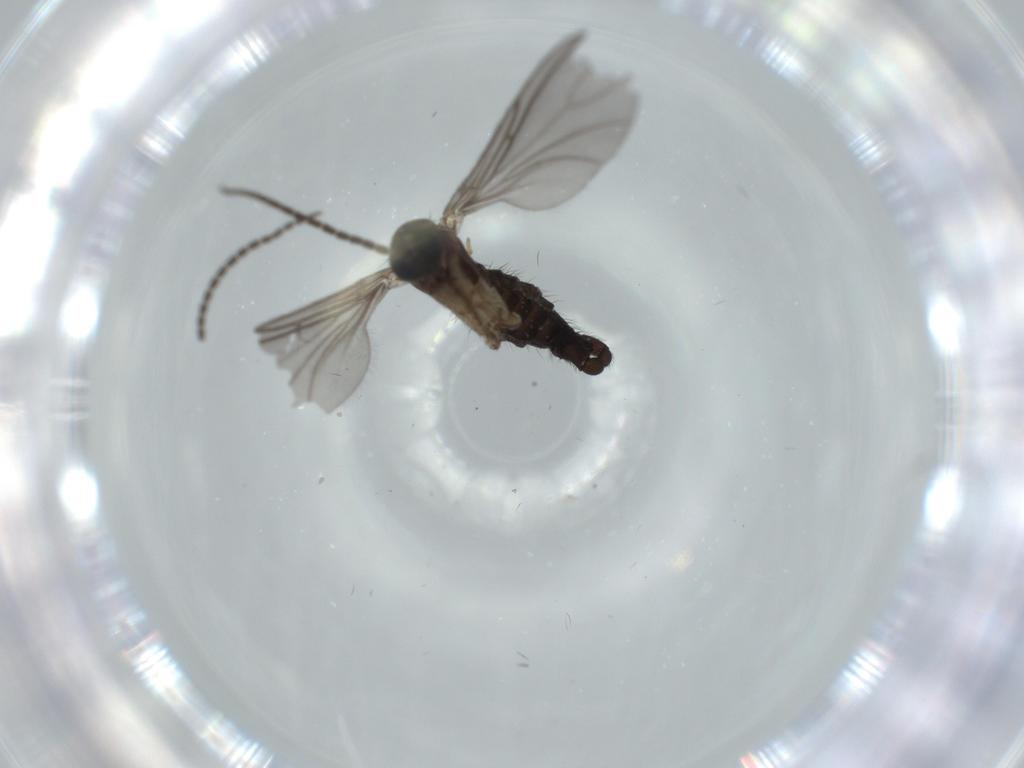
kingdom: Animalia
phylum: Arthropoda
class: Insecta
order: Diptera
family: Sciaridae
